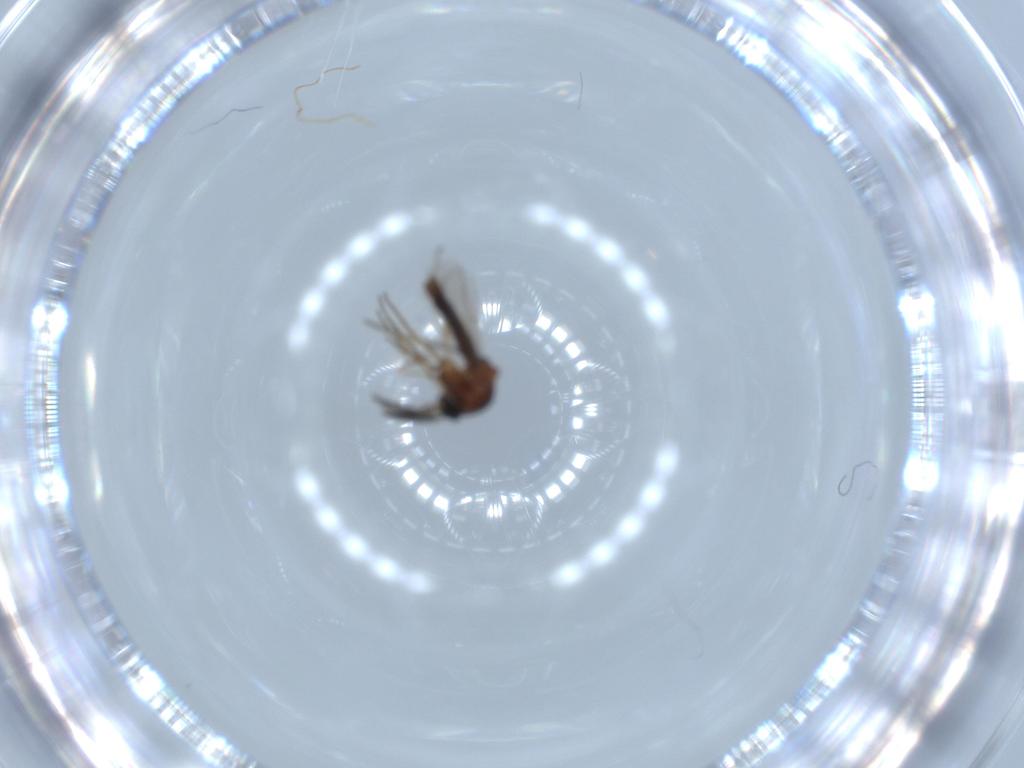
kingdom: Animalia
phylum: Arthropoda
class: Insecta
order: Diptera
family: Ceratopogonidae
